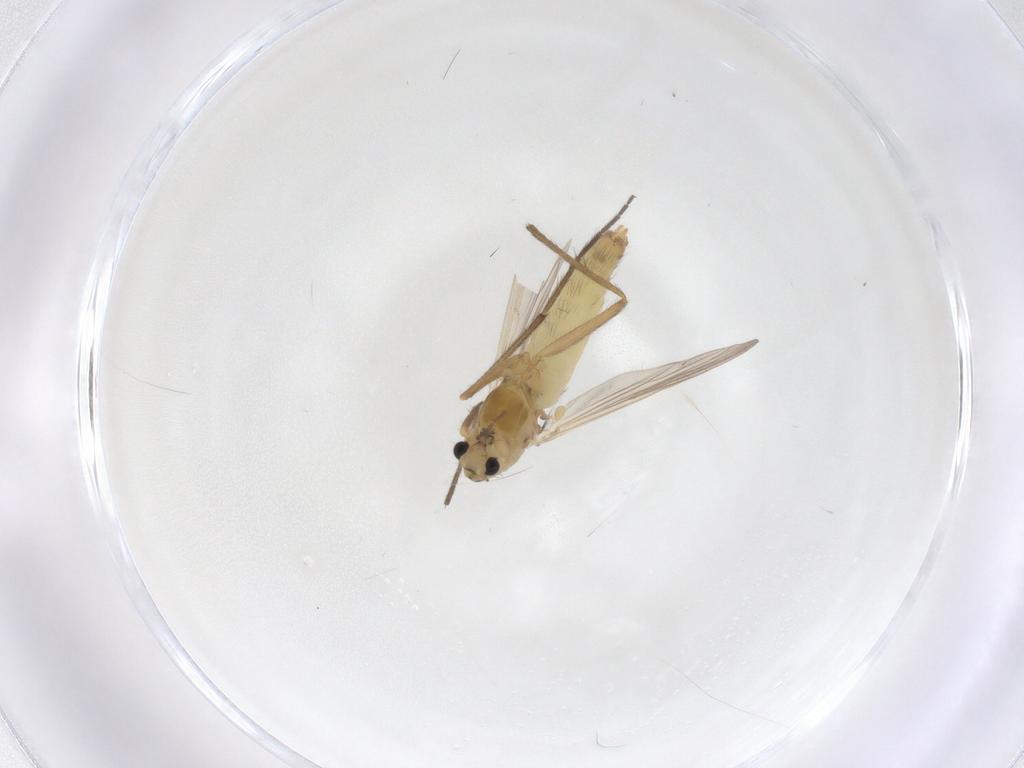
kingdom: Animalia
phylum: Arthropoda
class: Insecta
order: Diptera
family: Chironomidae
